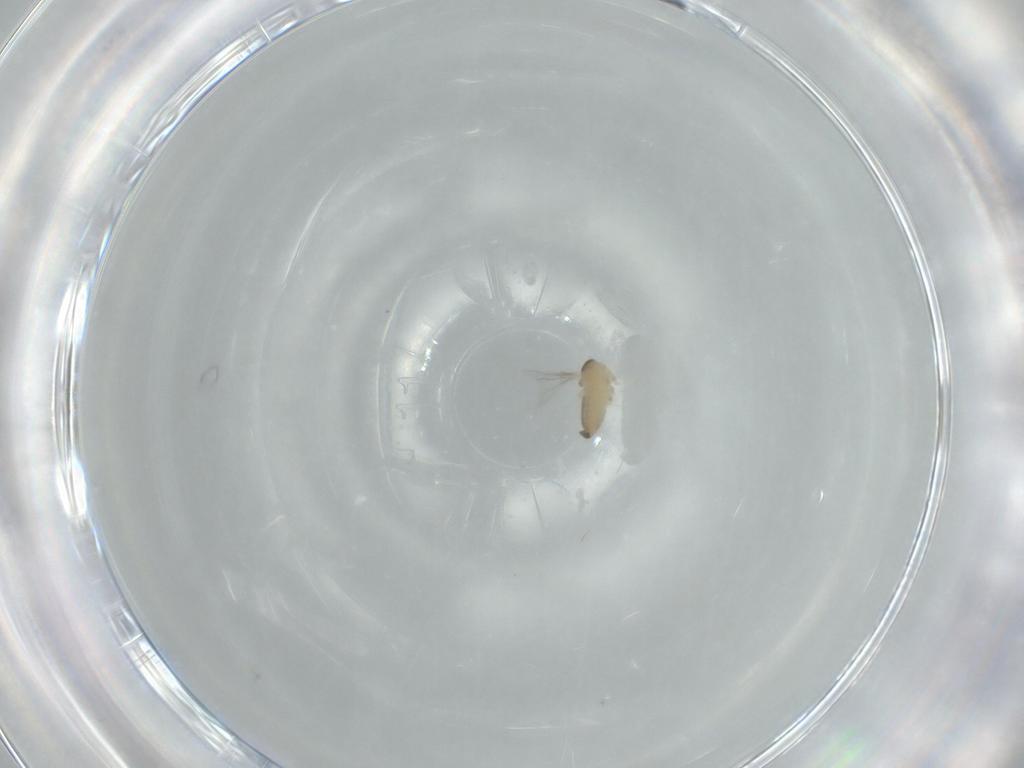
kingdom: Animalia
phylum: Arthropoda
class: Insecta
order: Diptera
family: Cecidomyiidae
